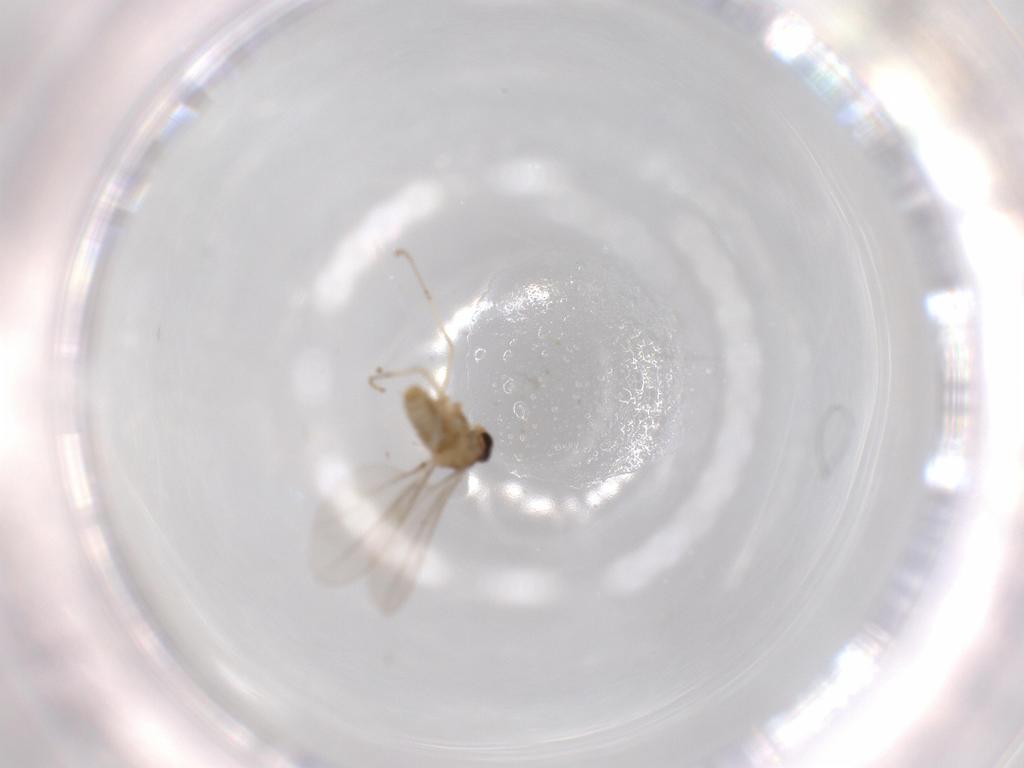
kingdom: Animalia
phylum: Arthropoda
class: Insecta
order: Diptera
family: Cecidomyiidae
